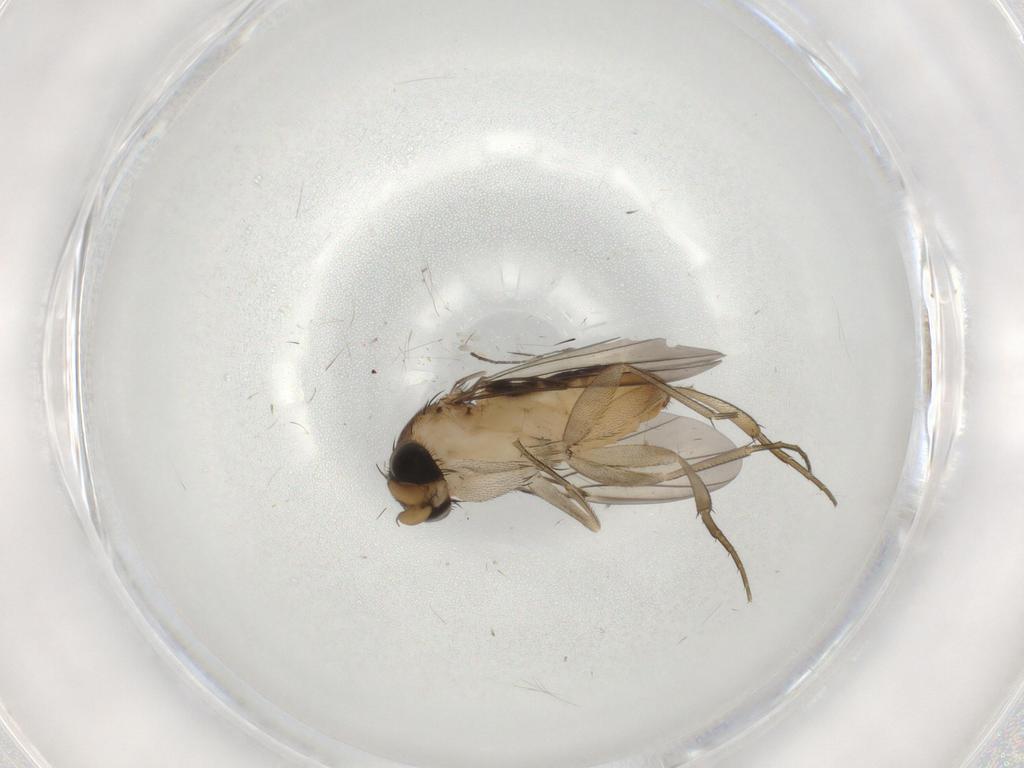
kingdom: Animalia
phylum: Arthropoda
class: Insecta
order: Diptera
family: Phoridae
